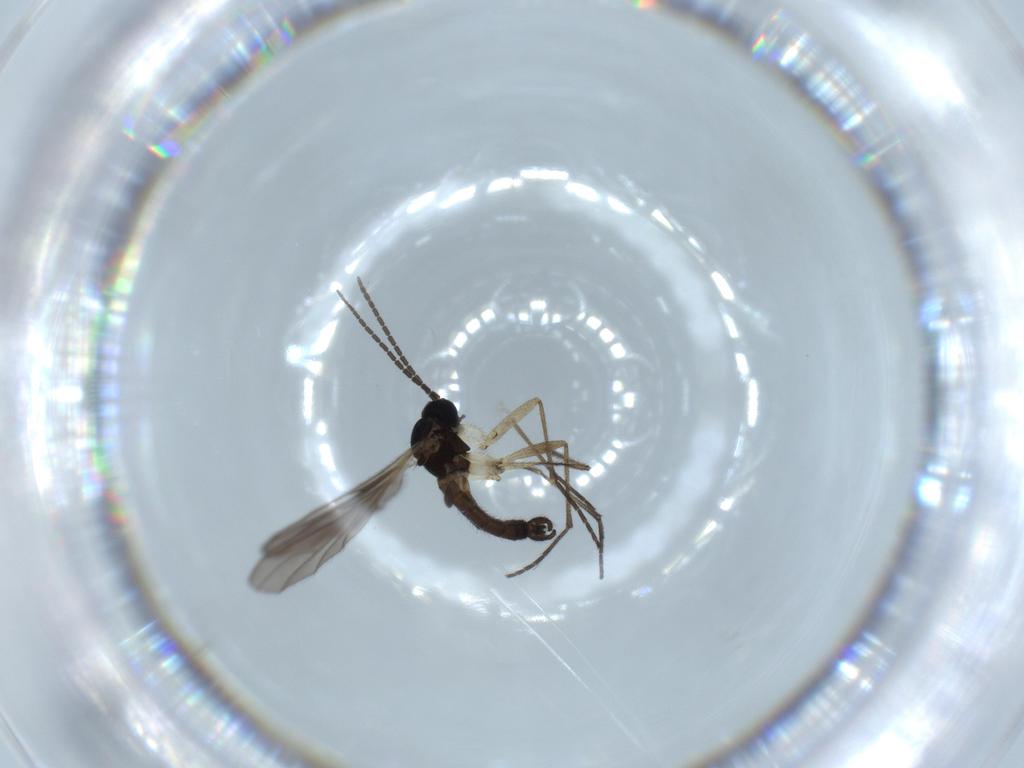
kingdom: Animalia
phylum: Arthropoda
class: Insecta
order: Diptera
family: Sciaridae
